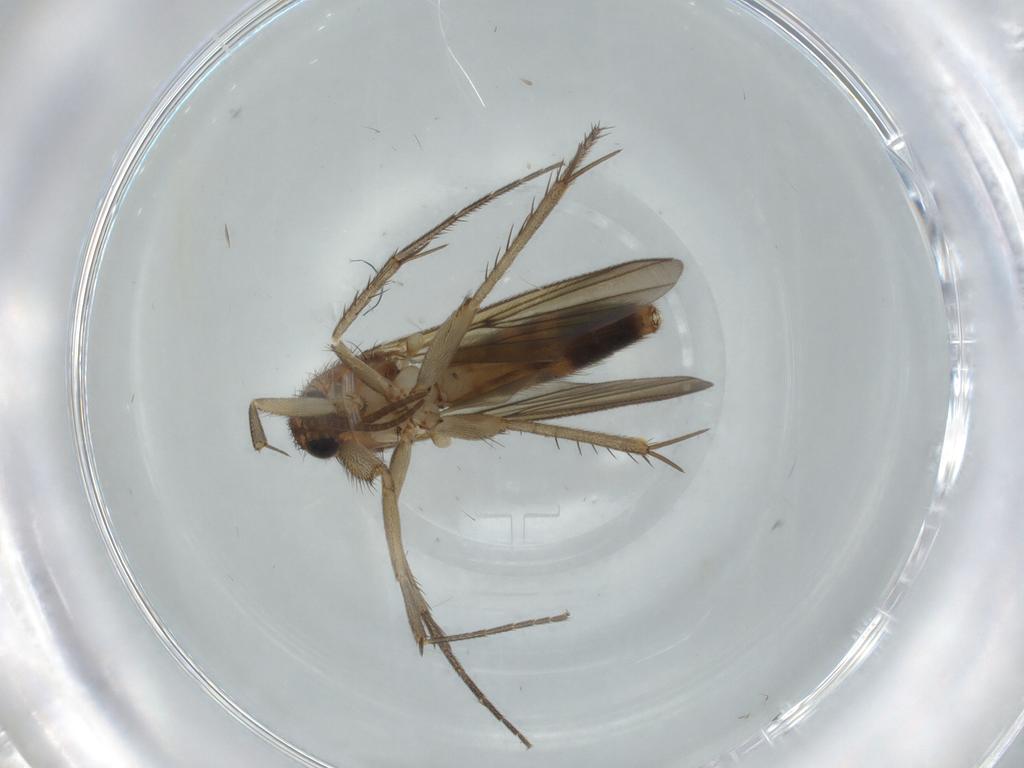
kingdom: Animalia
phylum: Arthropoda
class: Insecta
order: Diptera
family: Mycetophilidae
